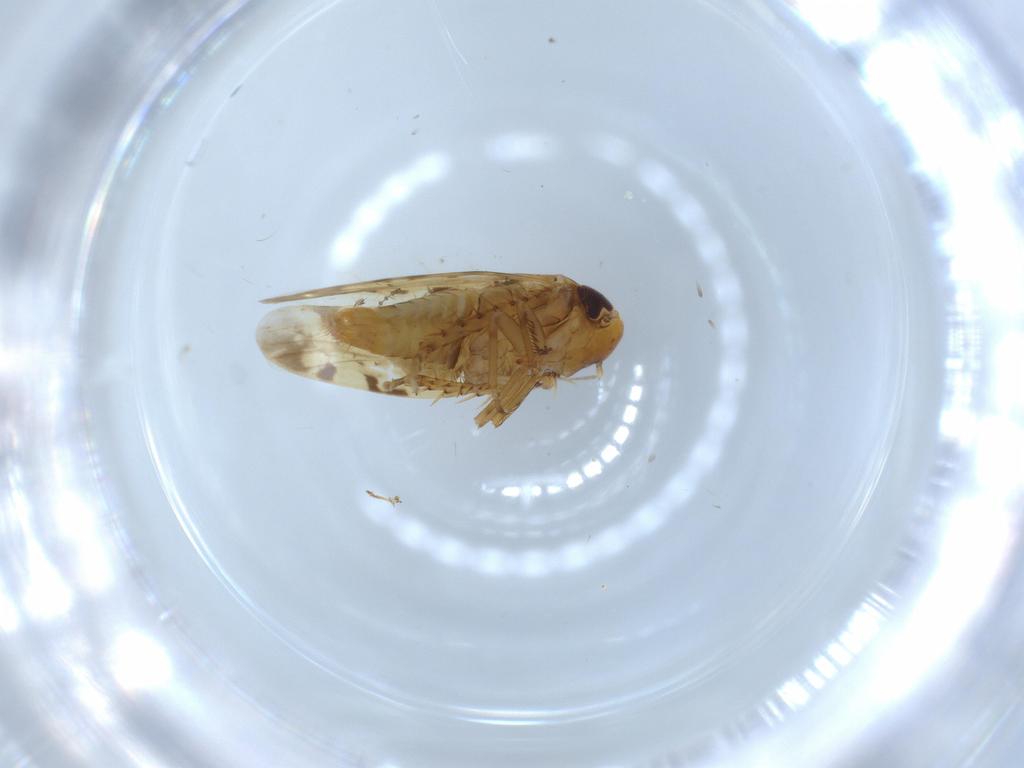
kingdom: Animalia
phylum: Arthropoda
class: Insecta
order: Hemiptera
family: Cicadellidae
